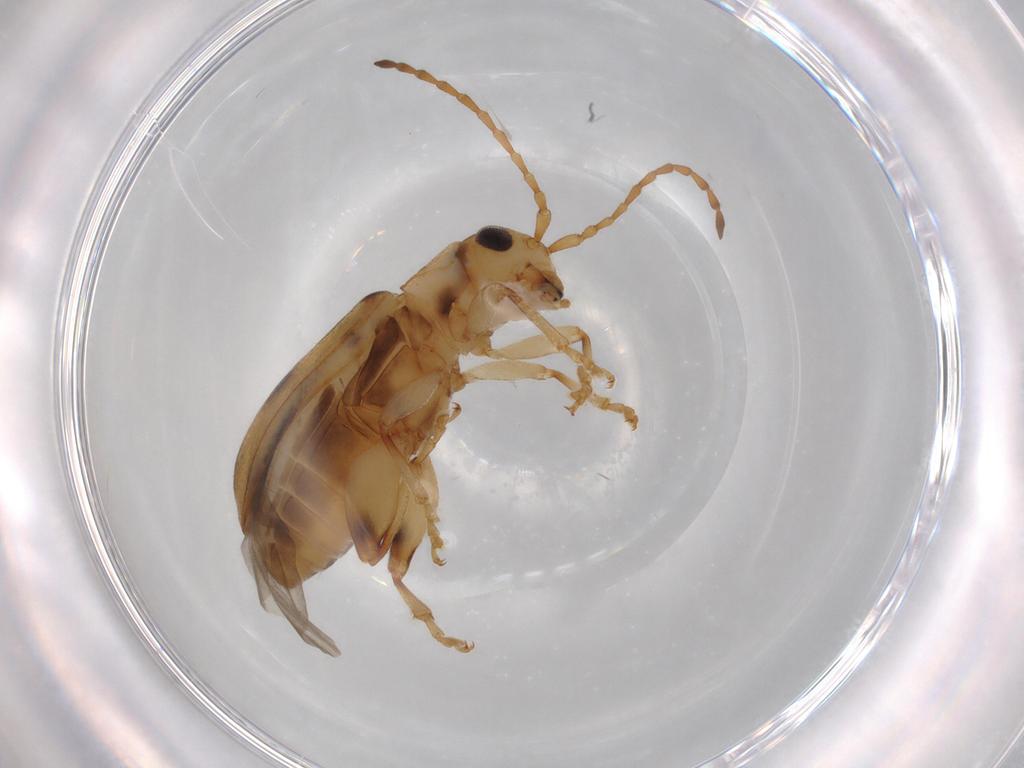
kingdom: Animalia
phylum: Arthropoda
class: Insecta
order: Coleoptera
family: Chrysomelidae
